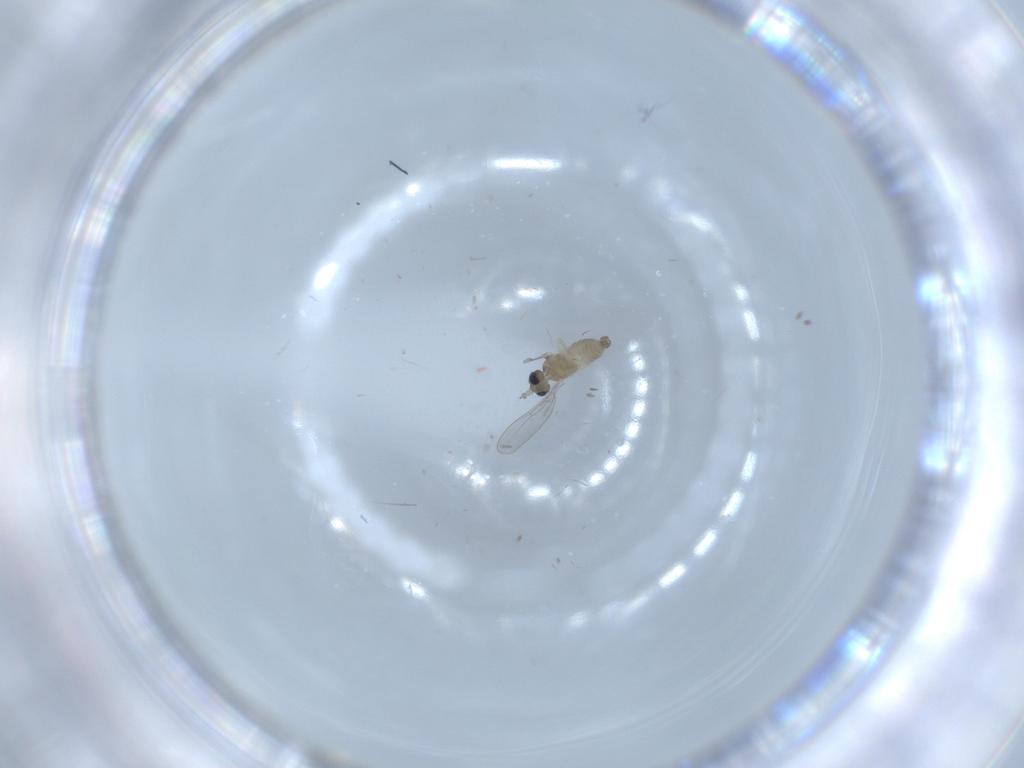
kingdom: Animalia
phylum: Arthropoda
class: Insecta
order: Diptera
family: Cecidomyiidae
